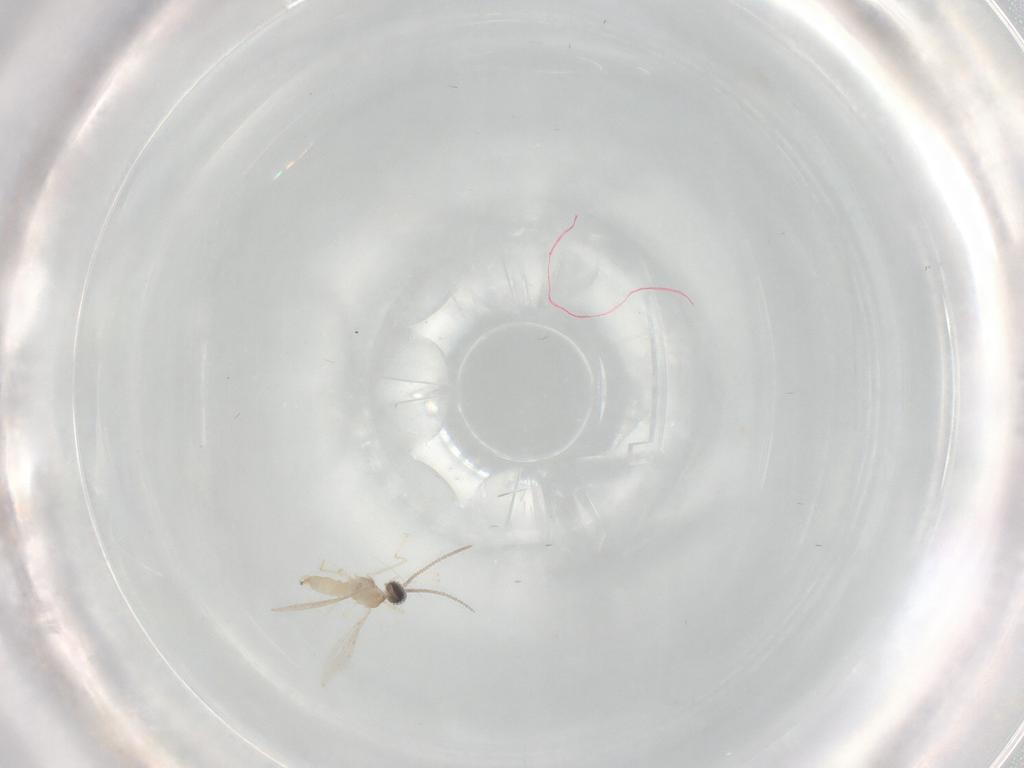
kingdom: Animalia
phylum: Arthropoda
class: Insecta
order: Diptera
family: Cecidomyiidae
